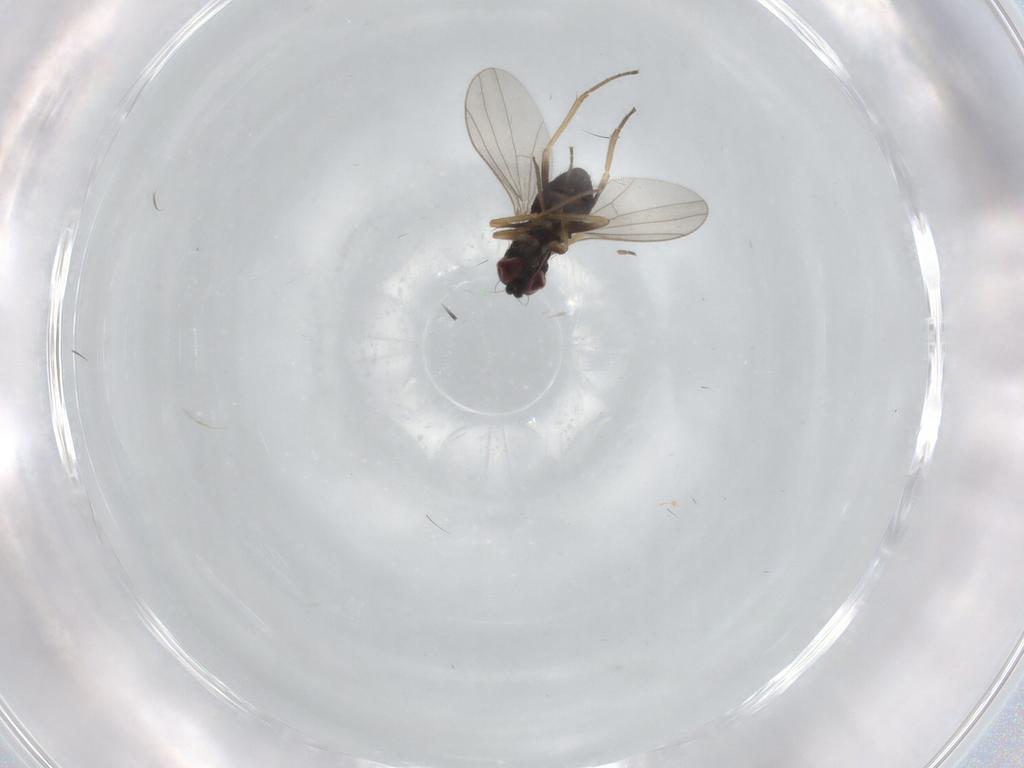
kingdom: Animalia
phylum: Arthropoda
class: Insecta
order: Diptera
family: Dolichopodidae
